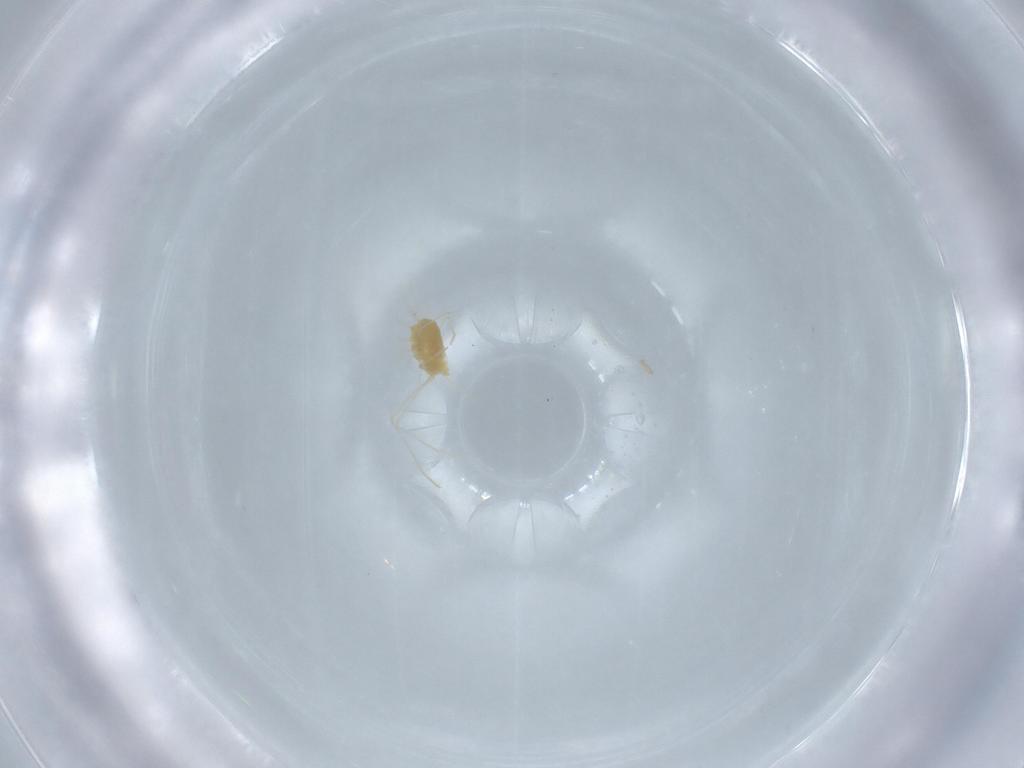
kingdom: Animalia
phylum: Arthropoda
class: Arachnida
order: Trombidiformes
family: Tetranychidae
